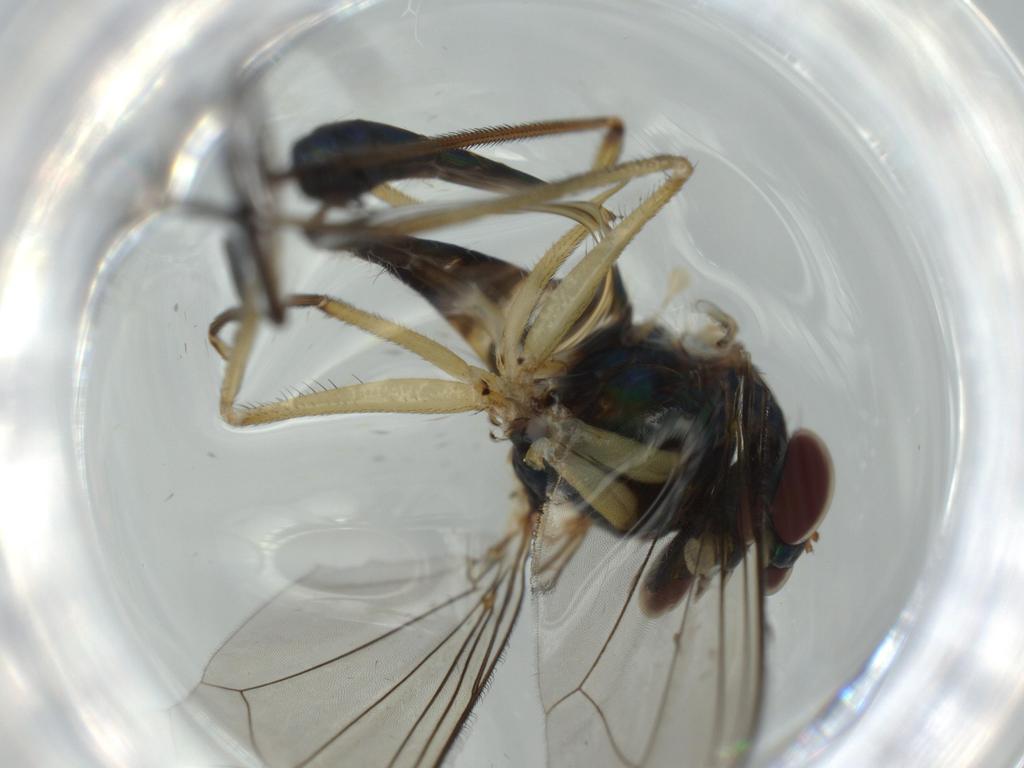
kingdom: Animalia
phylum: Arthropoda
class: Insecta
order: Diptera
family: Dolichopodidae
